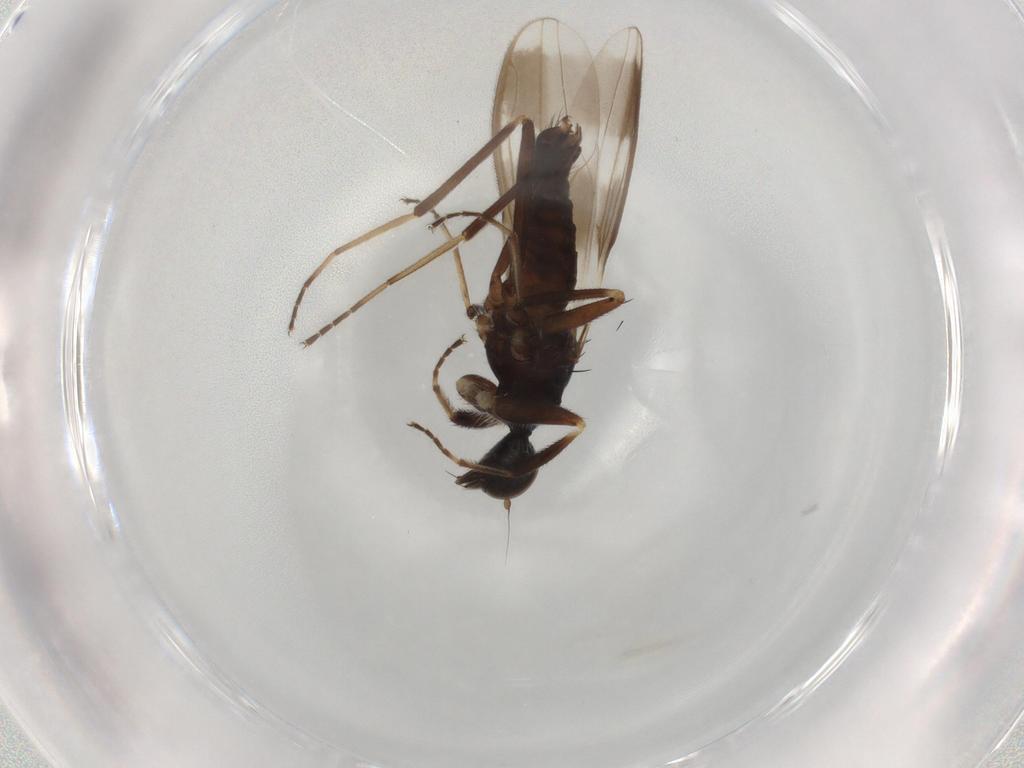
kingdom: Animalia
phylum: Arthropoda
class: Insecta
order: Diptera
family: Hybotidae
